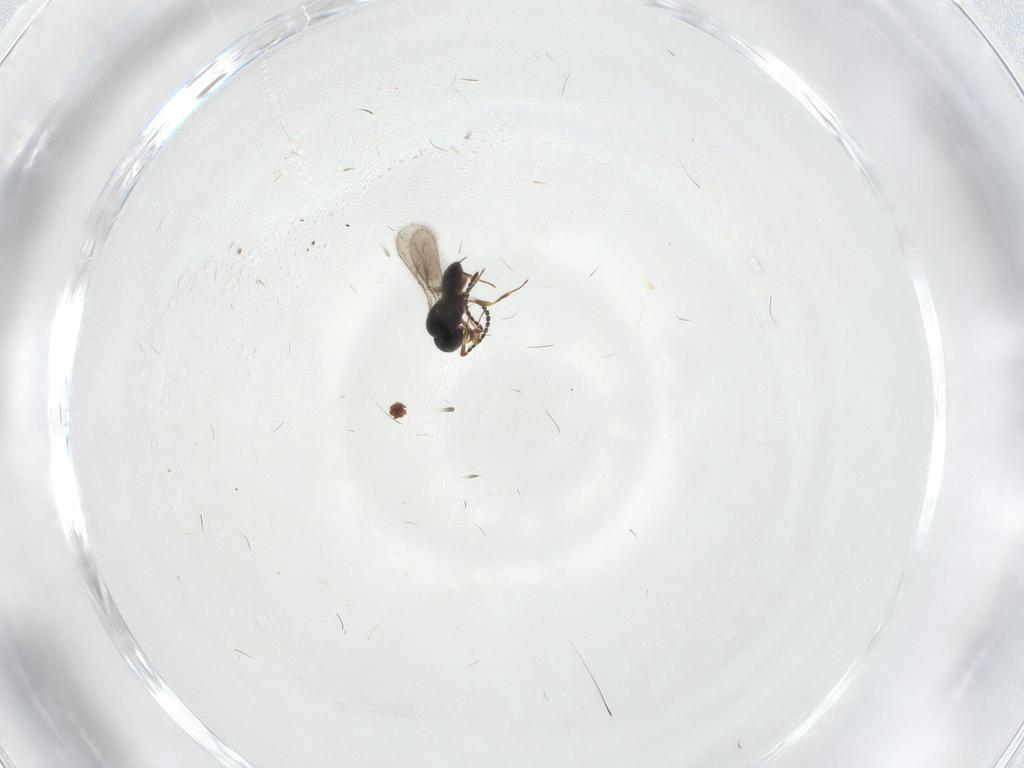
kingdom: Animalia
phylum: Arthropoda
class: Insecta
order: Hymenoptera
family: Scelionidae
